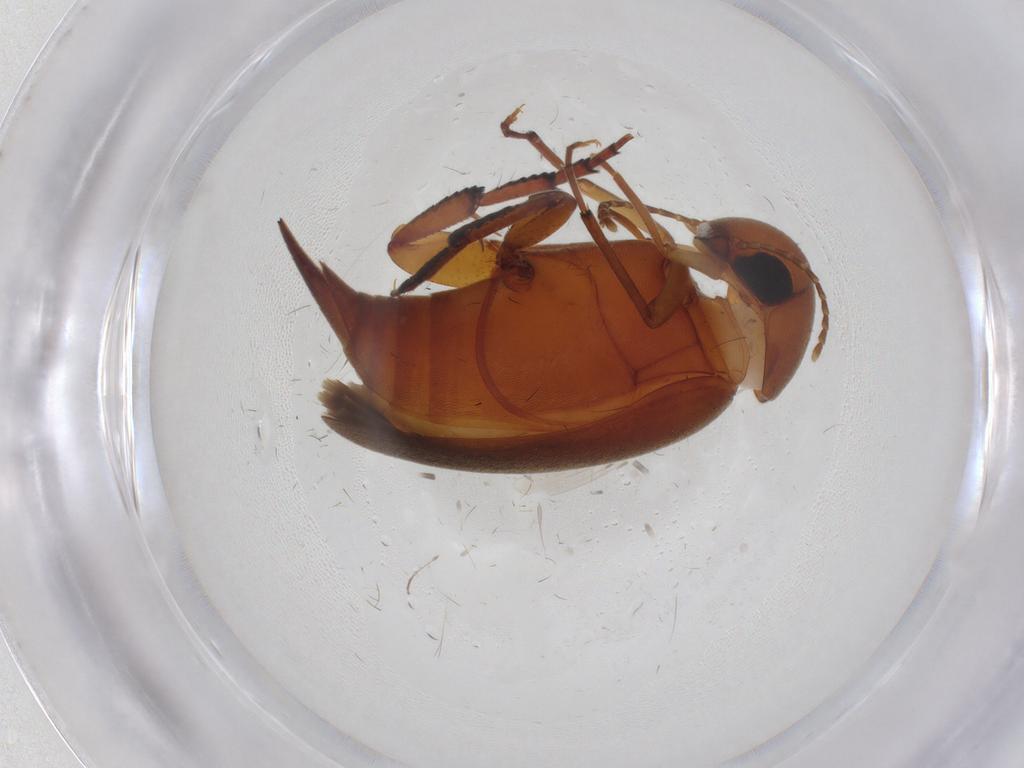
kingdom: Animalia
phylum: Arthropoda
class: Insecta
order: Coleoptera
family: Mordellidae
